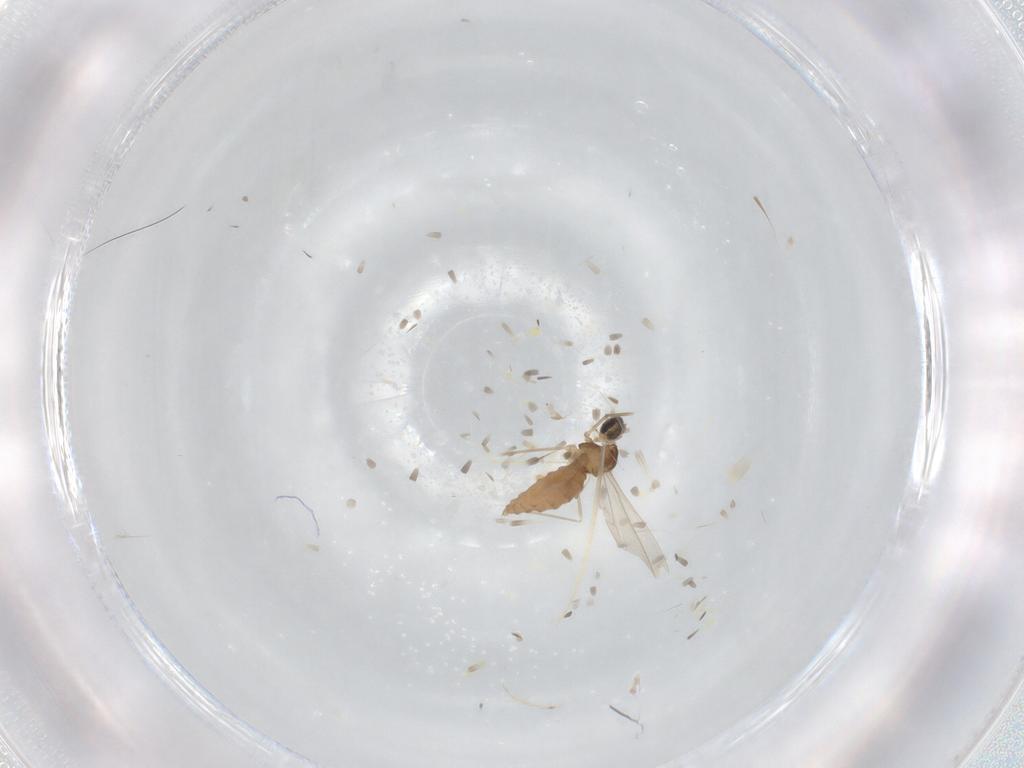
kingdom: Animalia
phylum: Arthropoda
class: Insecta
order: Diptera
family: Cecidomyiidae
